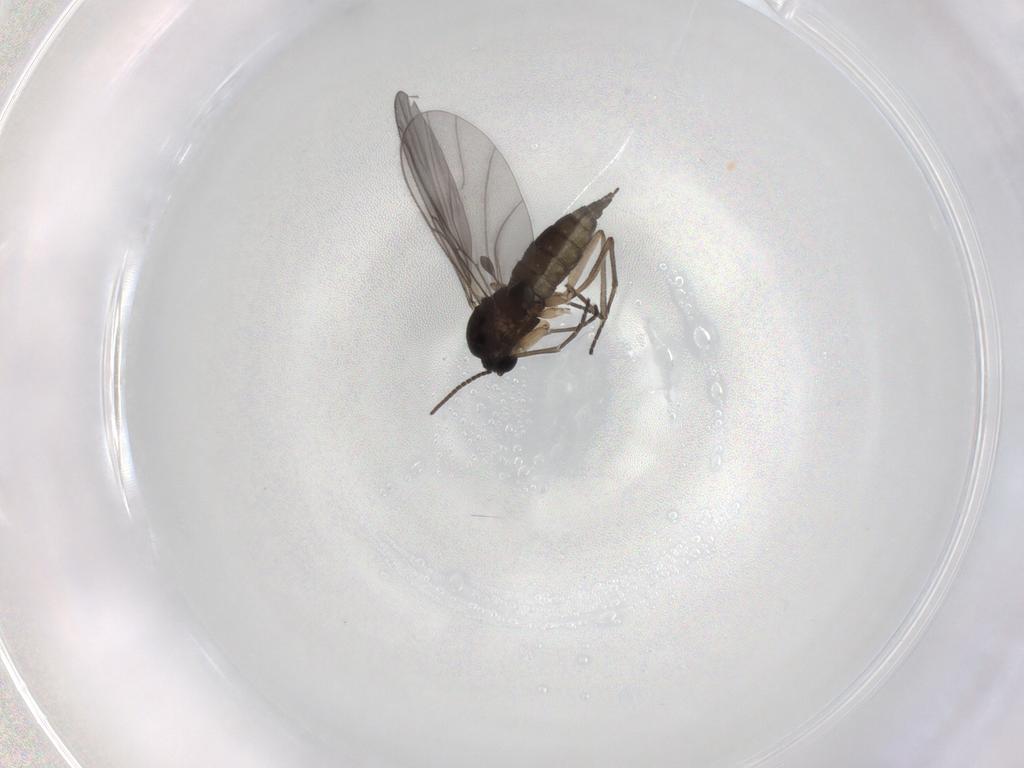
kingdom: Animalia
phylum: Arthropoda
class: Insecta
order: Diptera
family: Sciaridae
